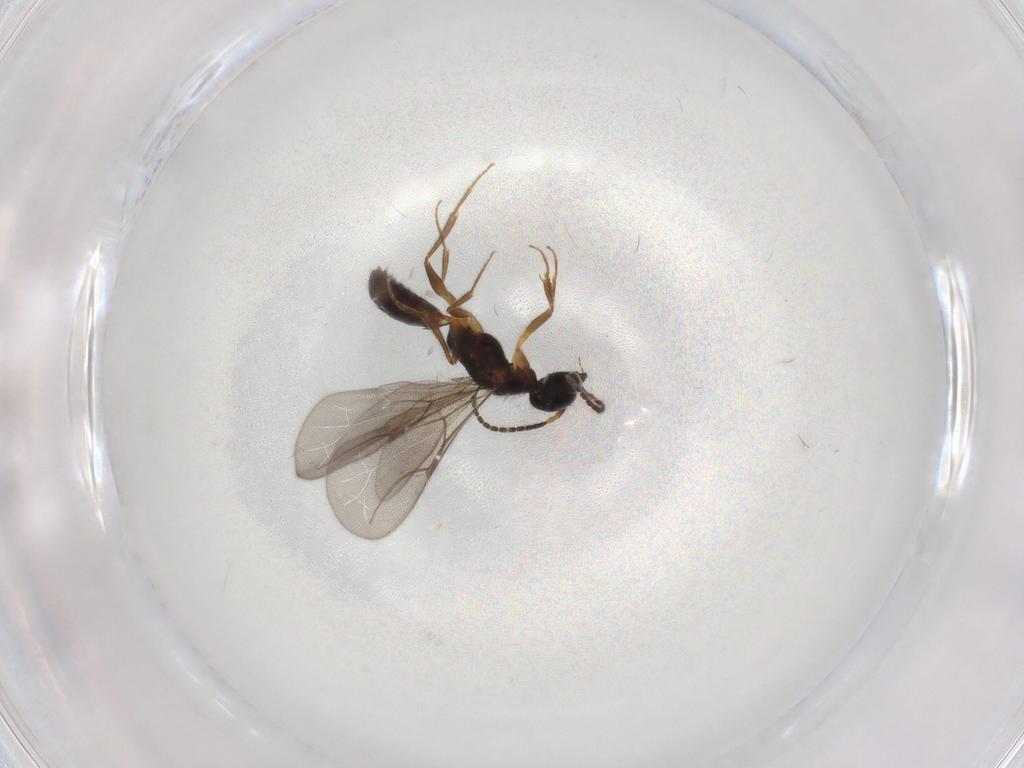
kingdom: Animalia
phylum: Arthropoda
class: Insecta
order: Hymenoptera
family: Bethylidae
